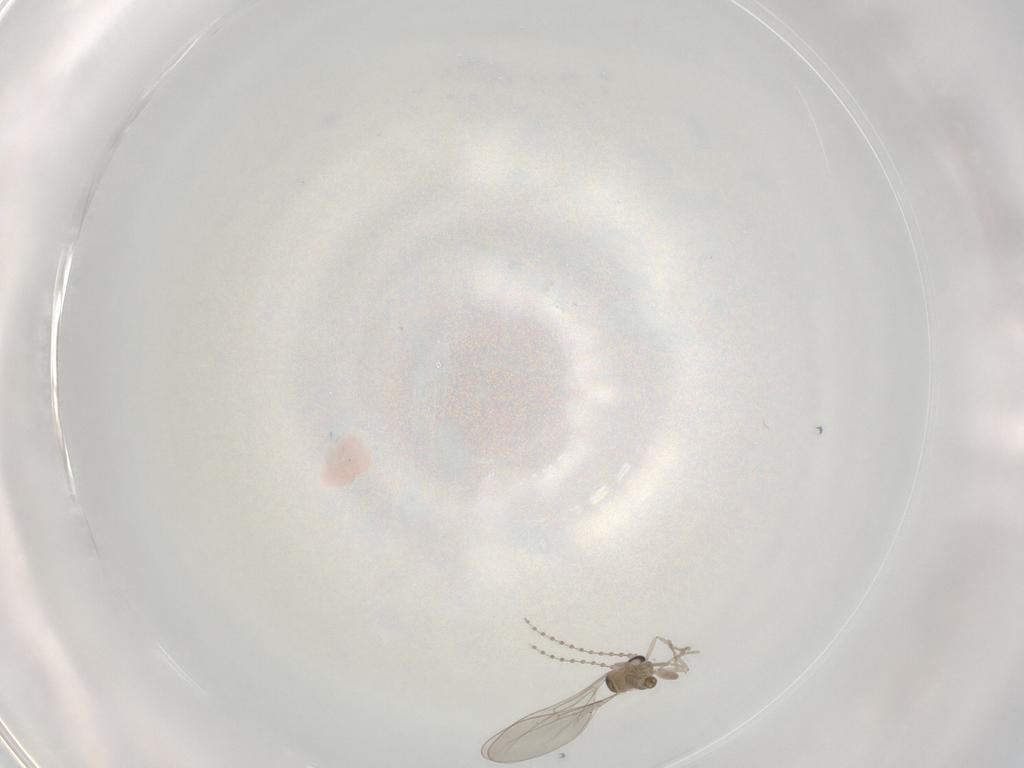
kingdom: Animalia
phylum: Arthropoda
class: Insecta
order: Diptera
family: Cecidomyiidae
